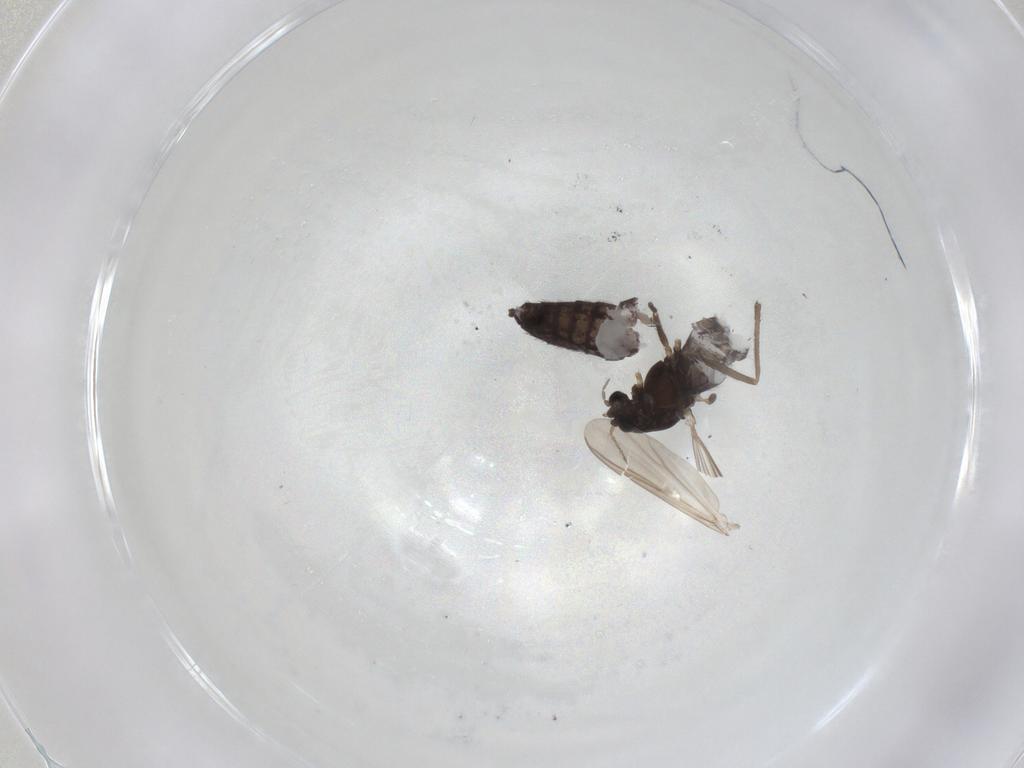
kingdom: Animalia
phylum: Arthropoda
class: Insecta
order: Diptera
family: Chironomidae
